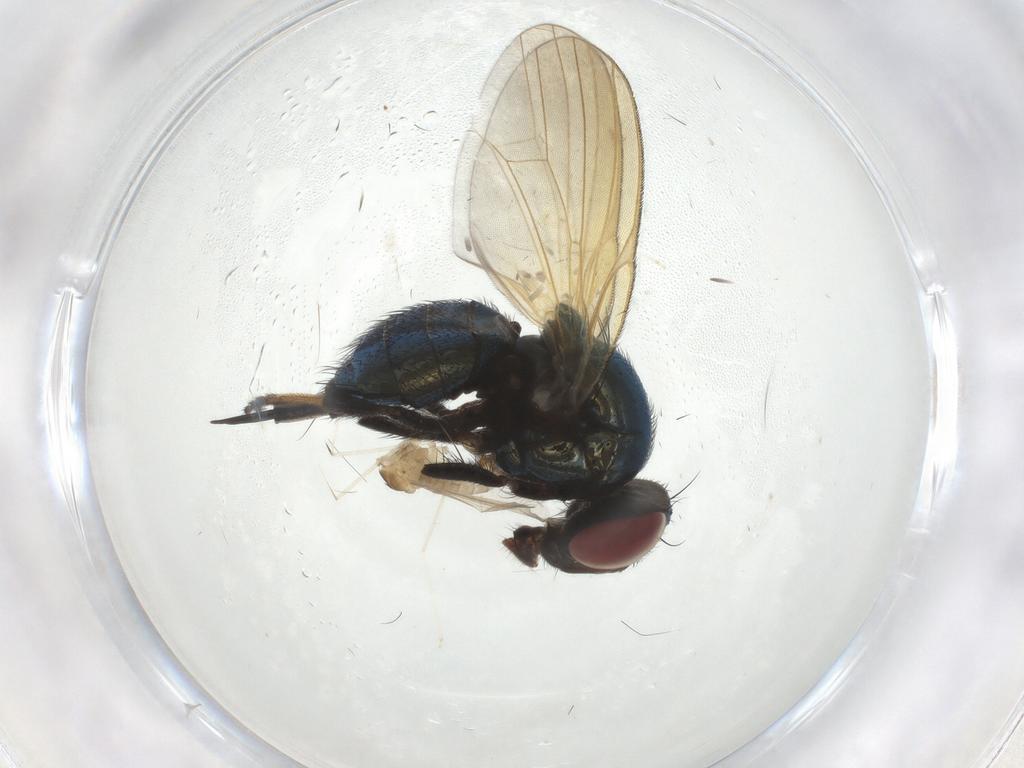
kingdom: Animalia
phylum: Arthropoda
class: Insecta
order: Diptera
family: Lonchaeidae
